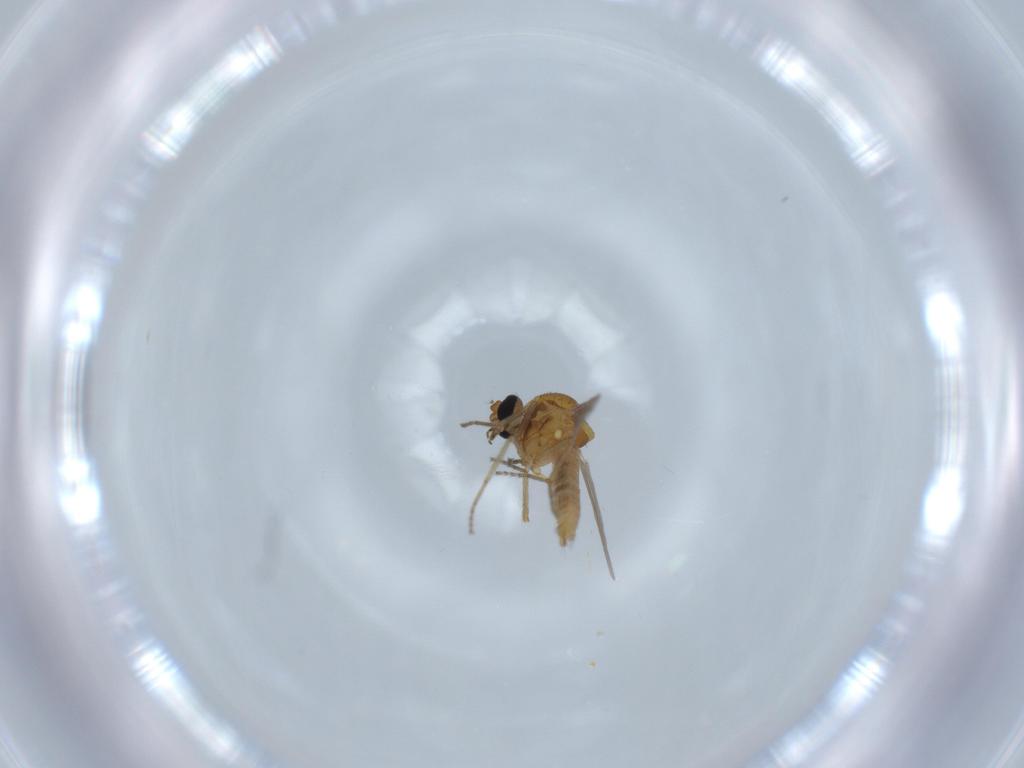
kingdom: Animalia
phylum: Arthropoda
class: Insecta
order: Diptera
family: Ceratopogonidae
